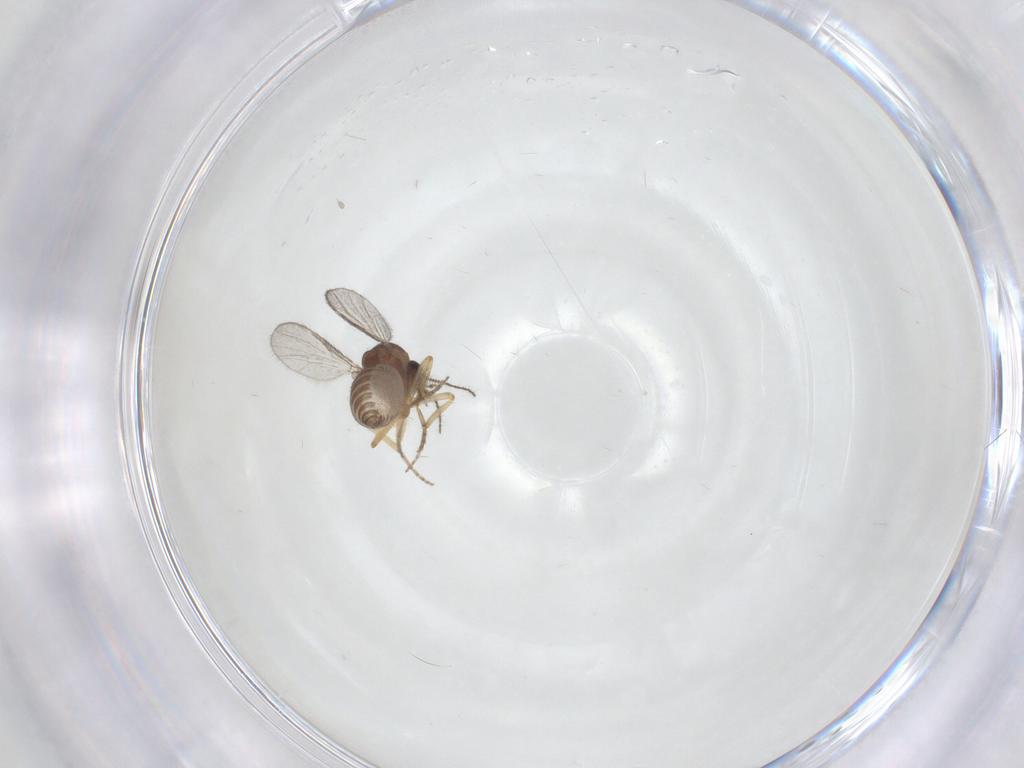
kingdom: Animalia
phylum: Arthropoda
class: Insecta
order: Diptera
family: Ceratopogonidae
